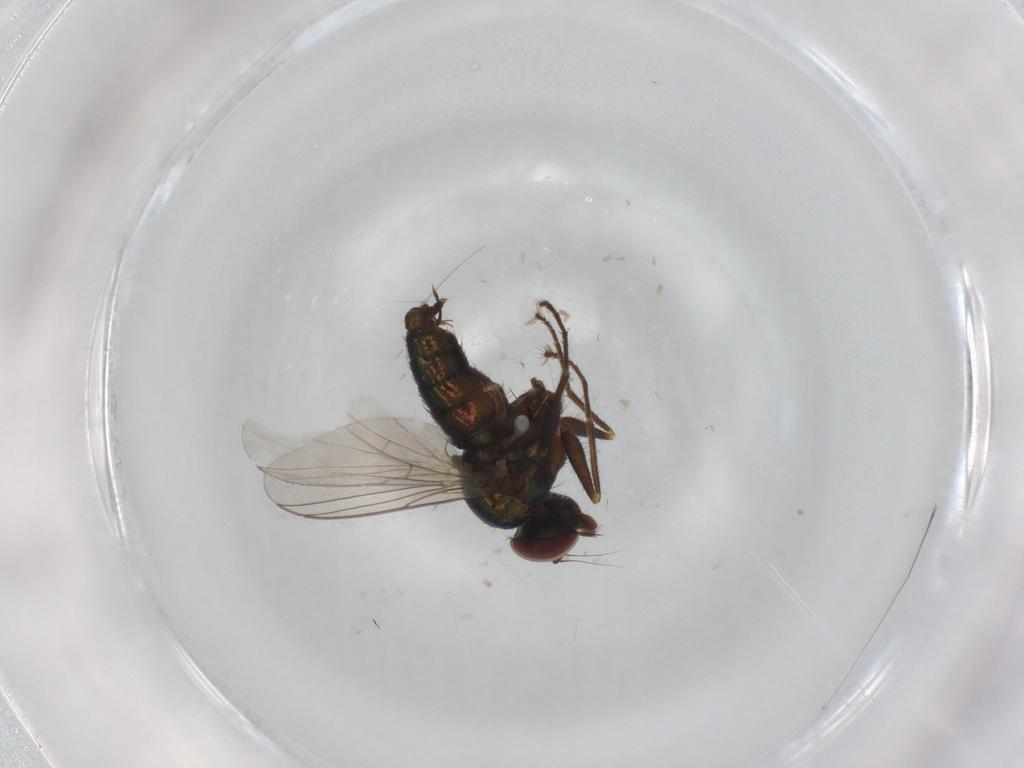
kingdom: Animalia
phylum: Arthropoda
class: Insecta
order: Diptera
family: Dolichopodidae
